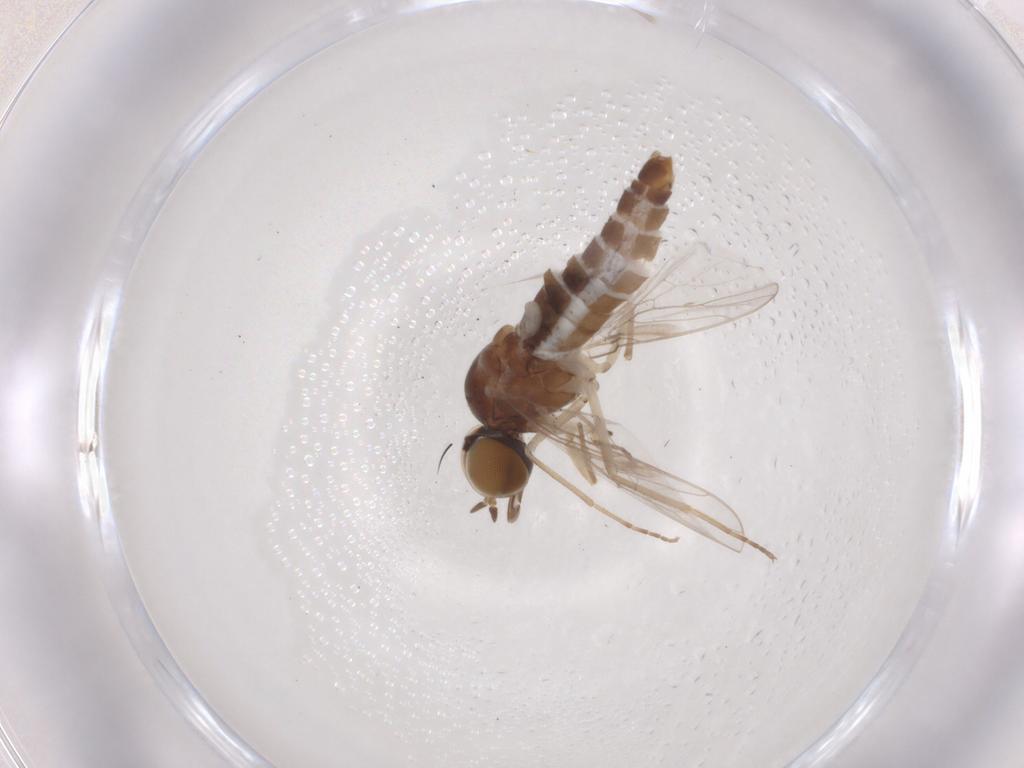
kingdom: Animalia
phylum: Arthropoda
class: Insecta
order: Diptera
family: Scenopinidae
